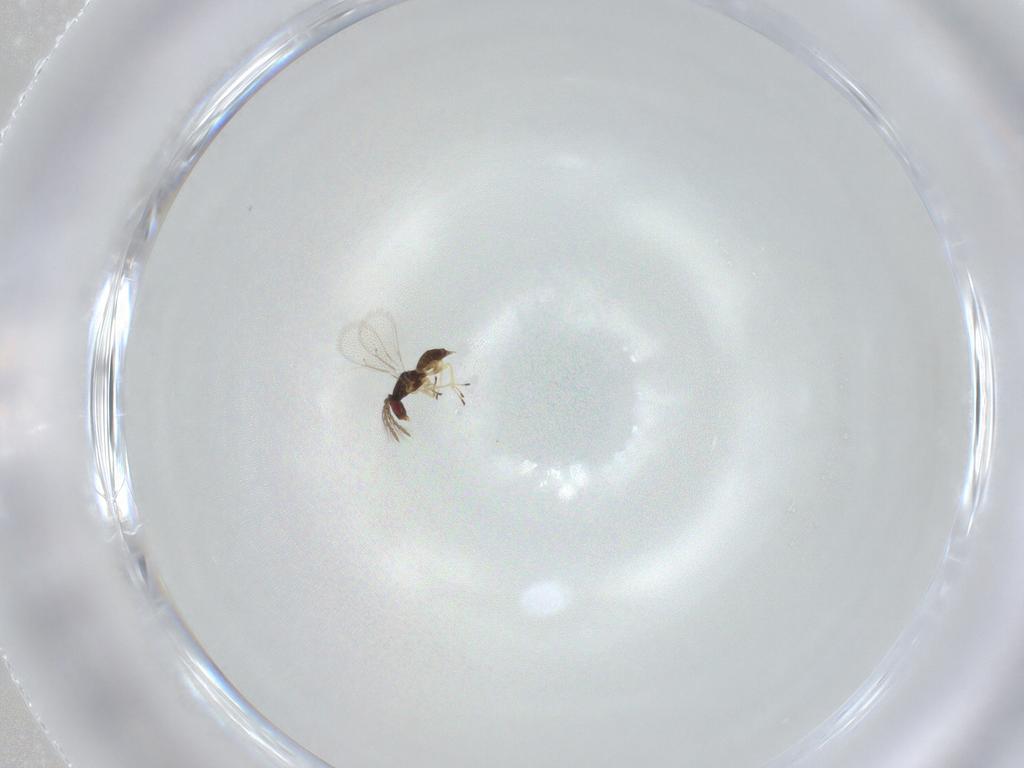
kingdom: Animalia
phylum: Arthropoda
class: Insecta
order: Hymenoptera
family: Eulophidae
